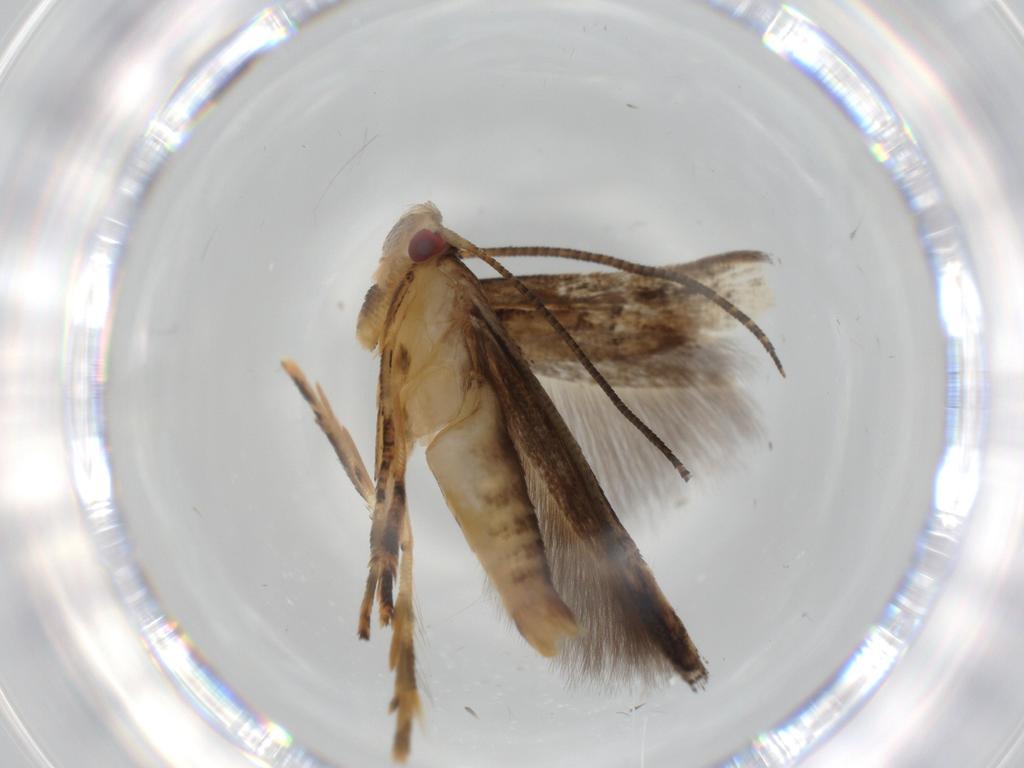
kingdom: Animalia
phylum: Arthropoda
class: Insecta
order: Lepidoptera
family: Tineidae
